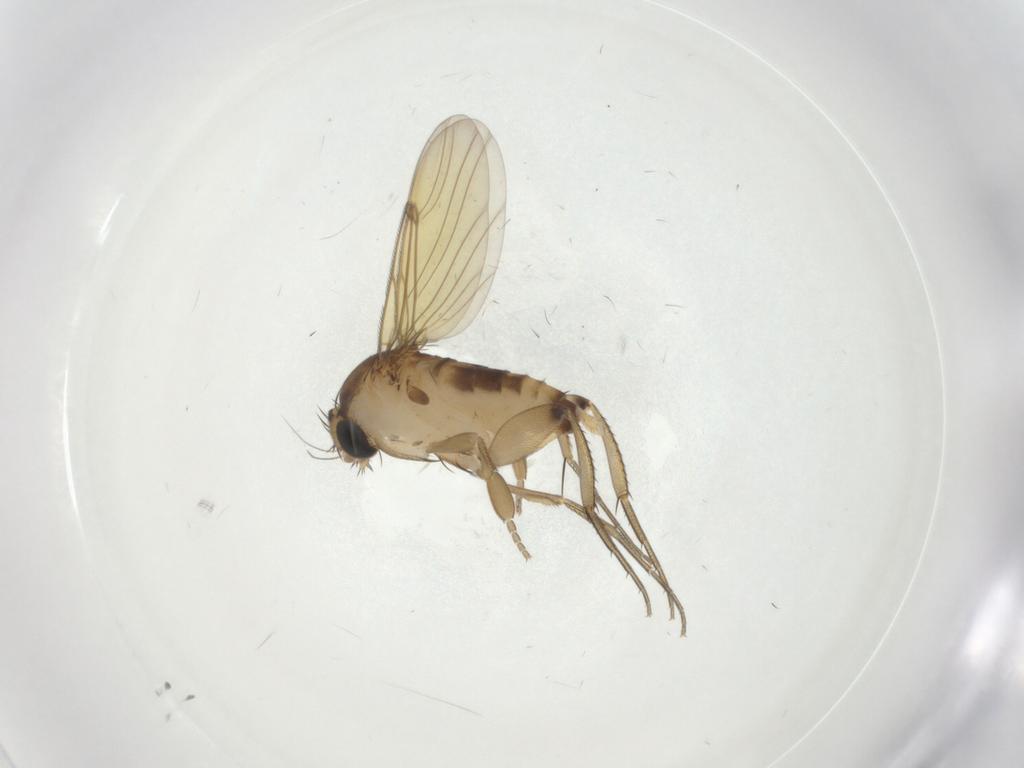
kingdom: Animalia
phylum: Arthropoda
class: Insecta
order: Diptera
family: Phoridae
